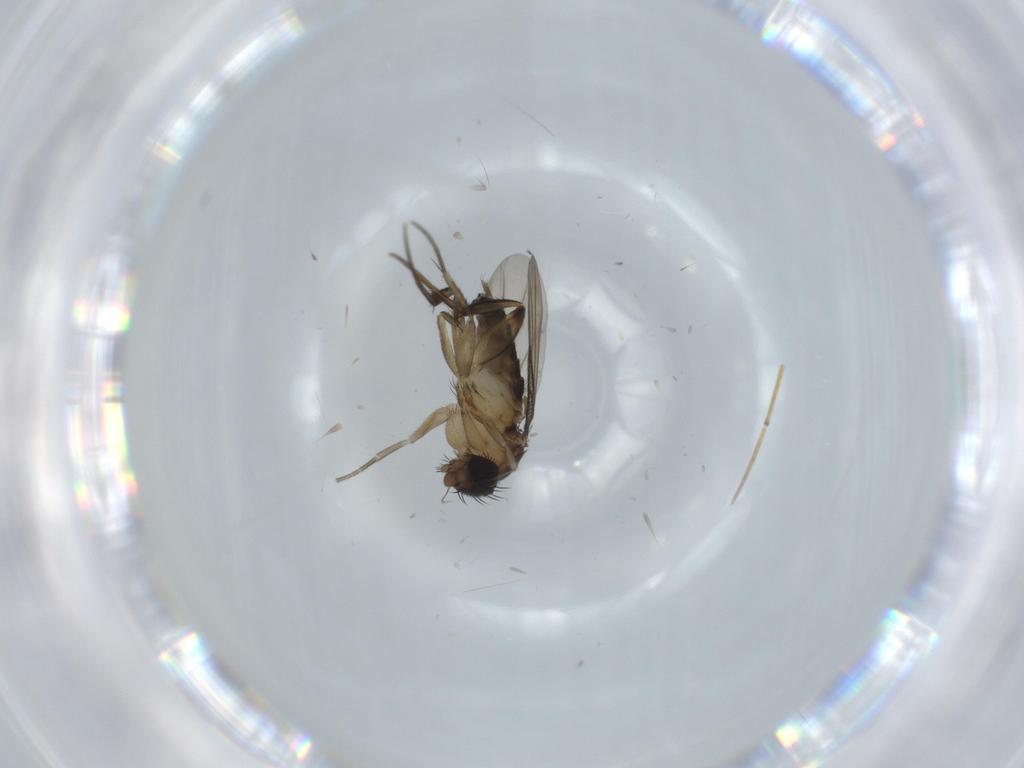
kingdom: Animalia
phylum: Arthropoda
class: Insecta
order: Diptera
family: Phoridae
